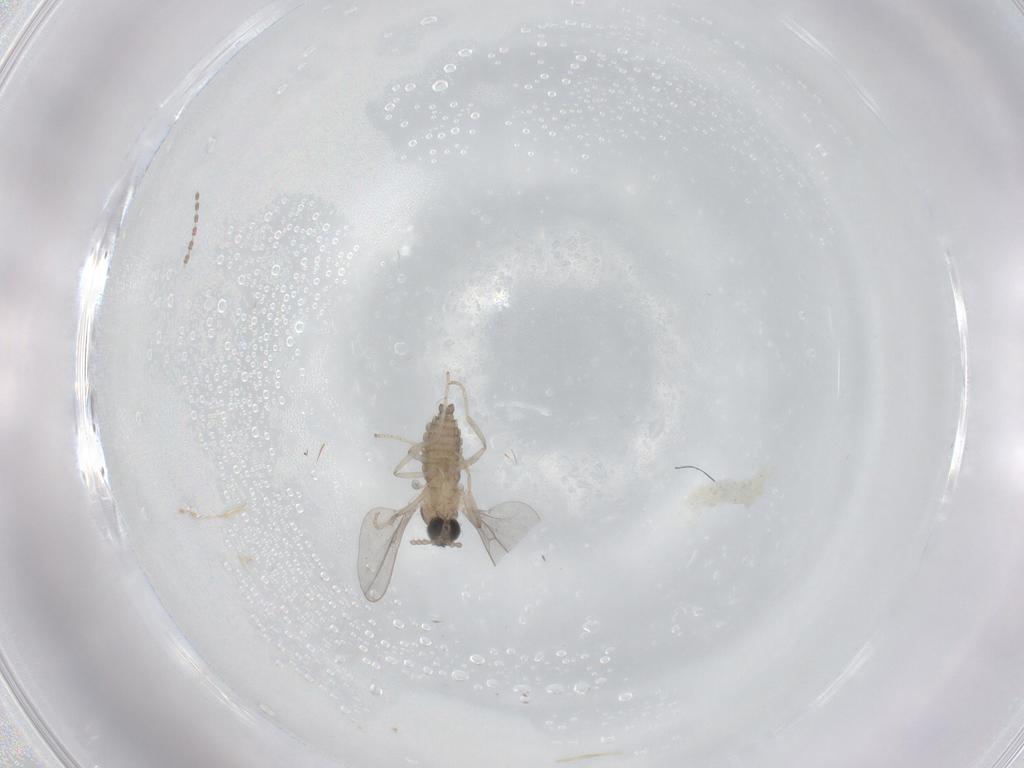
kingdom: Animalia
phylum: Arthropoda
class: Insecta
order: Diptera
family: Cecidomyiidae
